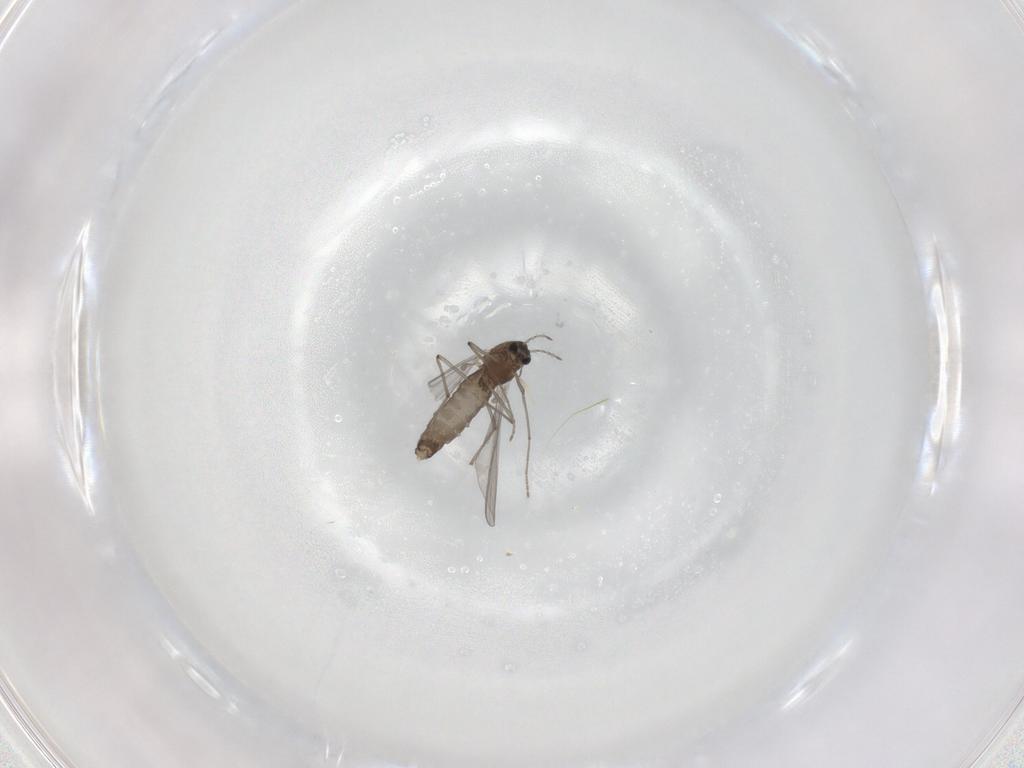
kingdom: Animalia
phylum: Arthropoda
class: Insecta
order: Diptera
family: Chironomidae
